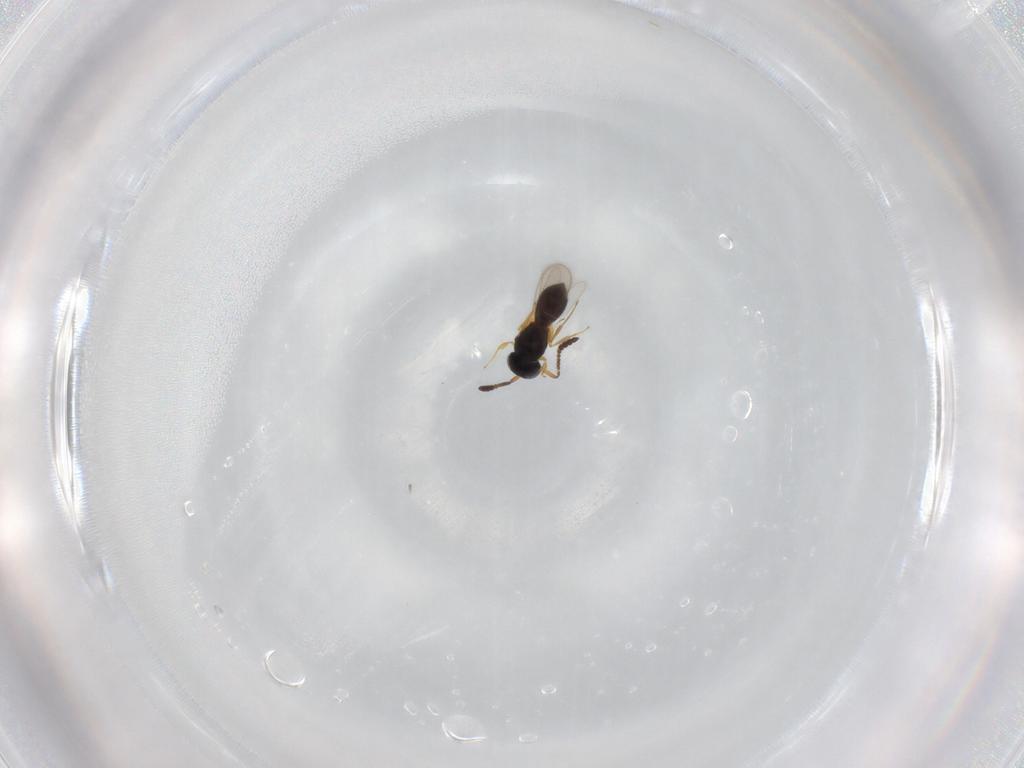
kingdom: Animalia
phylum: Arthropoda
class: Insecta
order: Hymenoptera
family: Scelionidae
